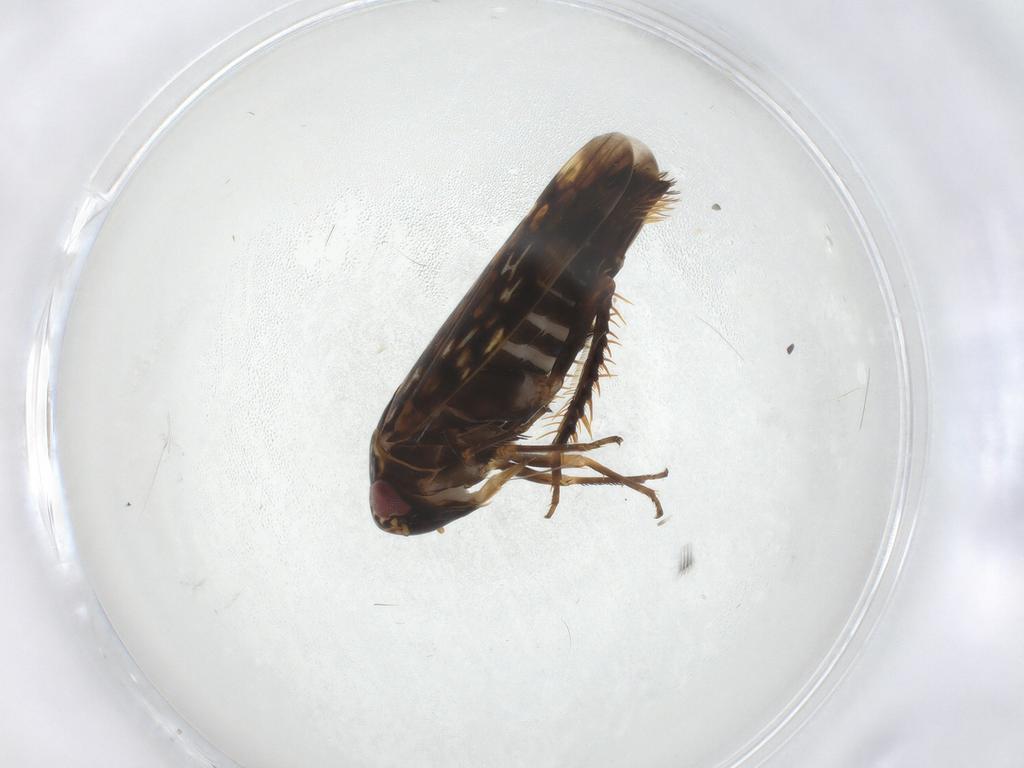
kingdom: Animalia
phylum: Arthropoda
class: Insecta
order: Hemiptera
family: Cicadellidae
